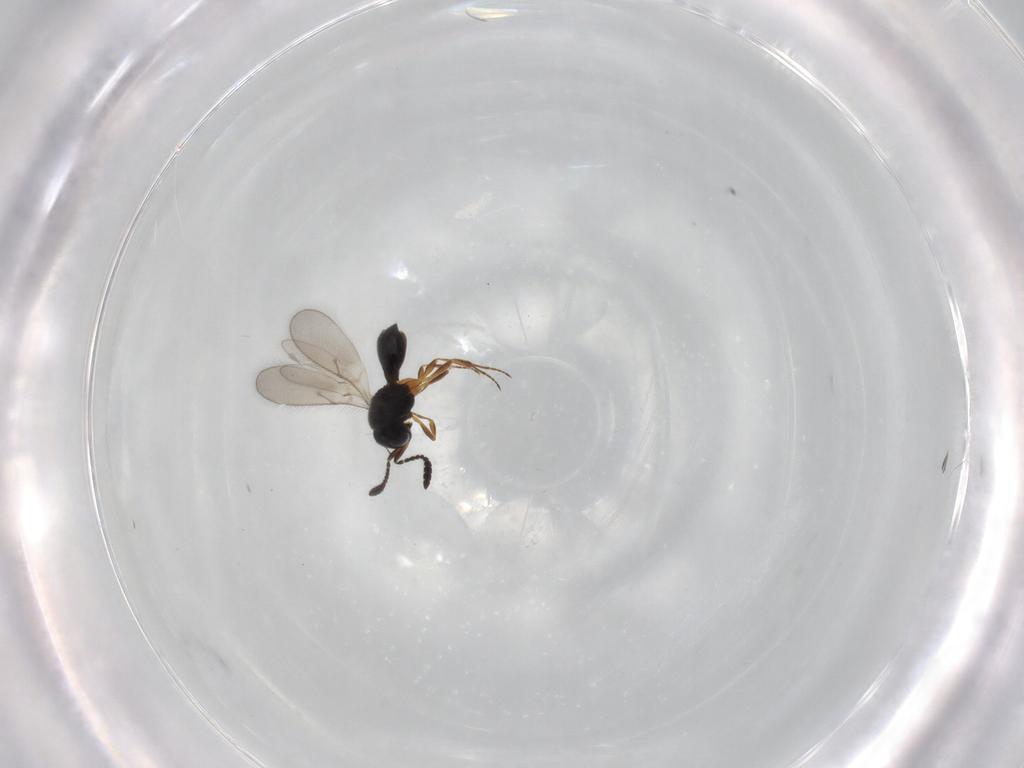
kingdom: Animalia
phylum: Arthropoda
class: Insecta
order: Hymenoptera
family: Scelionidae
